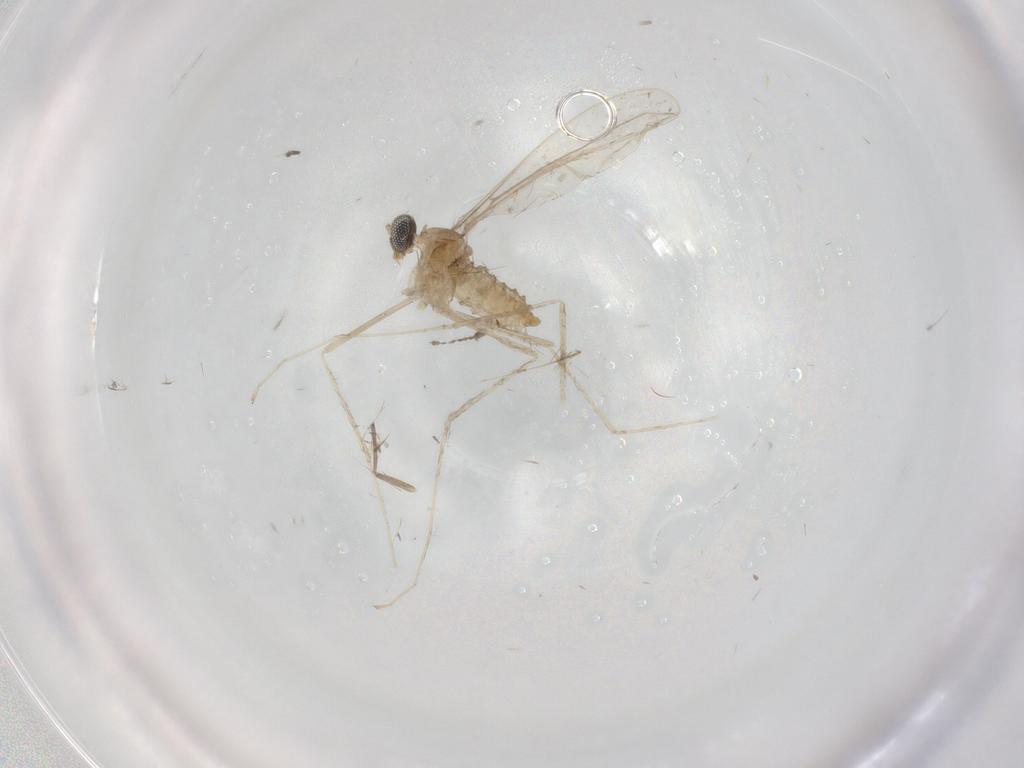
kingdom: Animalia
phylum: Arthropoda
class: Insecta
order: Diptera
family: Cecidomyiidae
